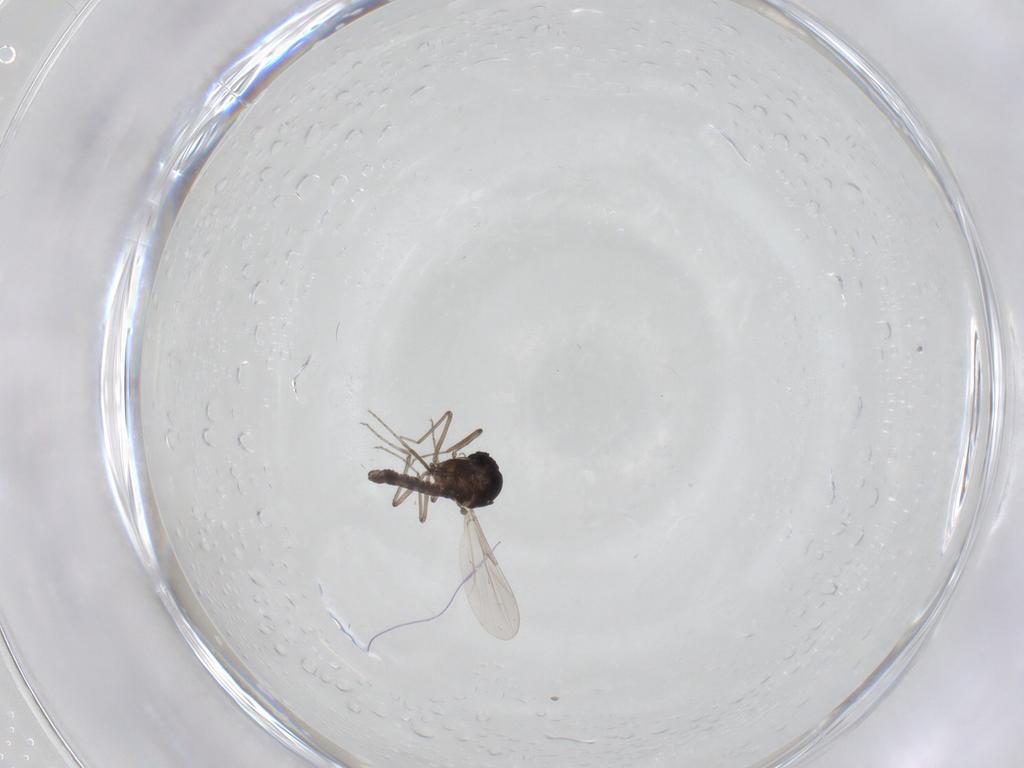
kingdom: Animalia
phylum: Arthropoda
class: Insecta
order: Diptera
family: Ceratopogonidae
